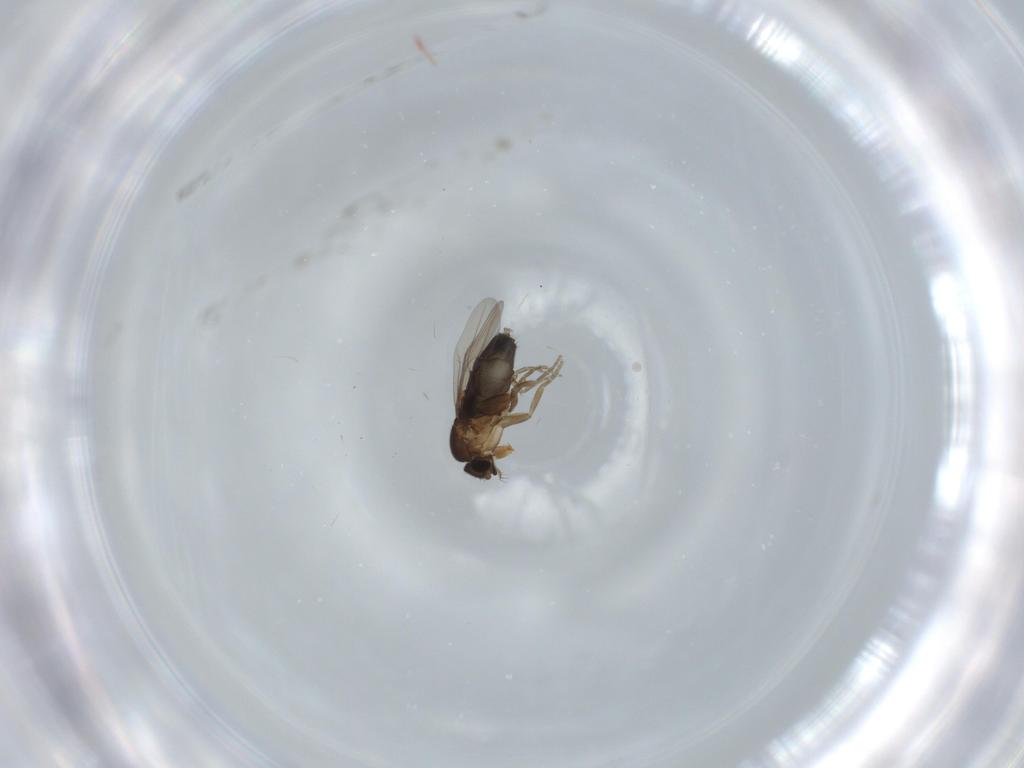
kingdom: Animalia
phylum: Arthropoda
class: Insecta
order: Diptera
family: Phoridae
